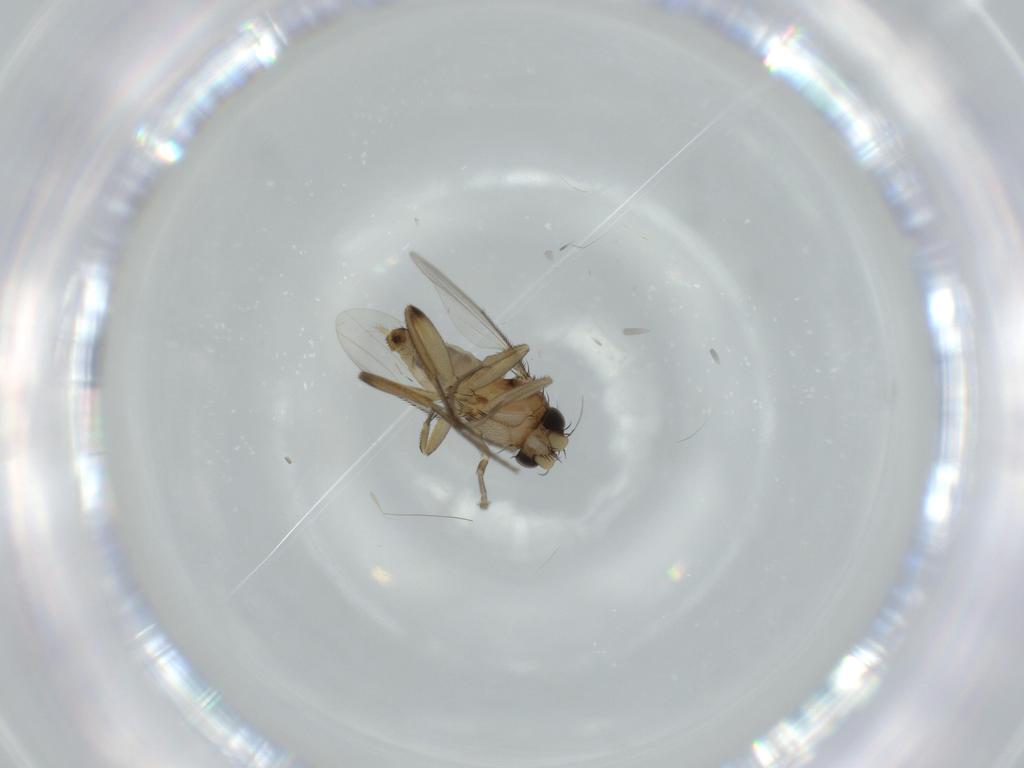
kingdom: Animalia
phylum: Arthropoda
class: Insecta
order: Diptera
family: Phoridae
